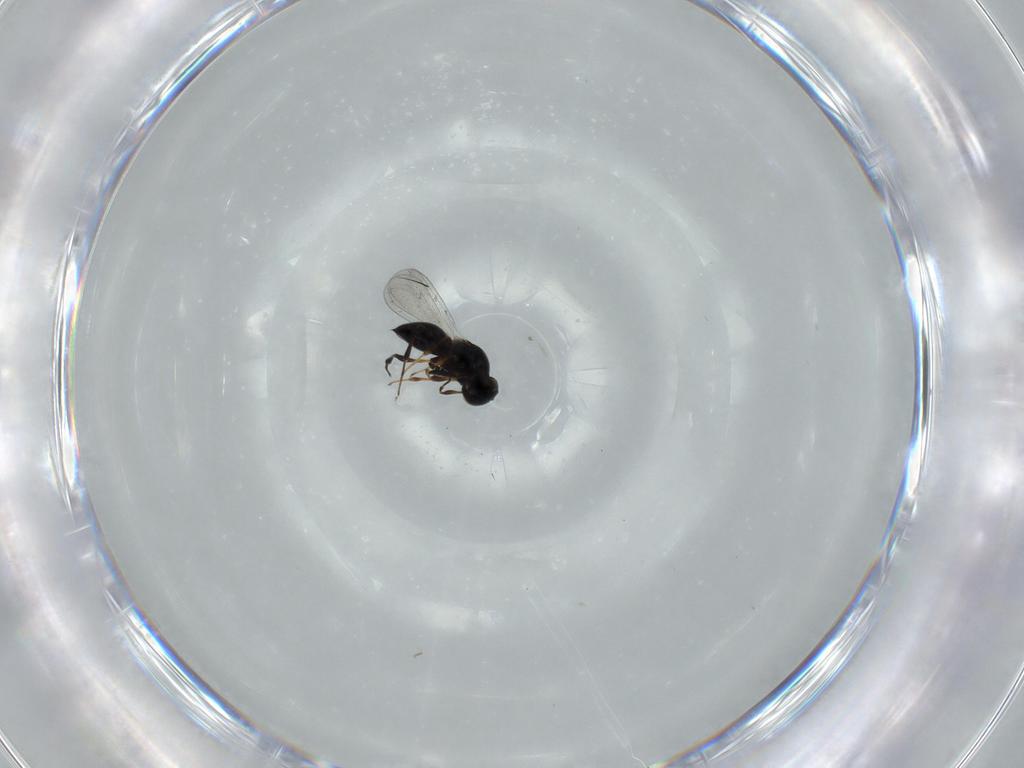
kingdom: Animalia
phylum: Arthropoda
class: Insecta
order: Hymenoptera
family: Platygastridae
